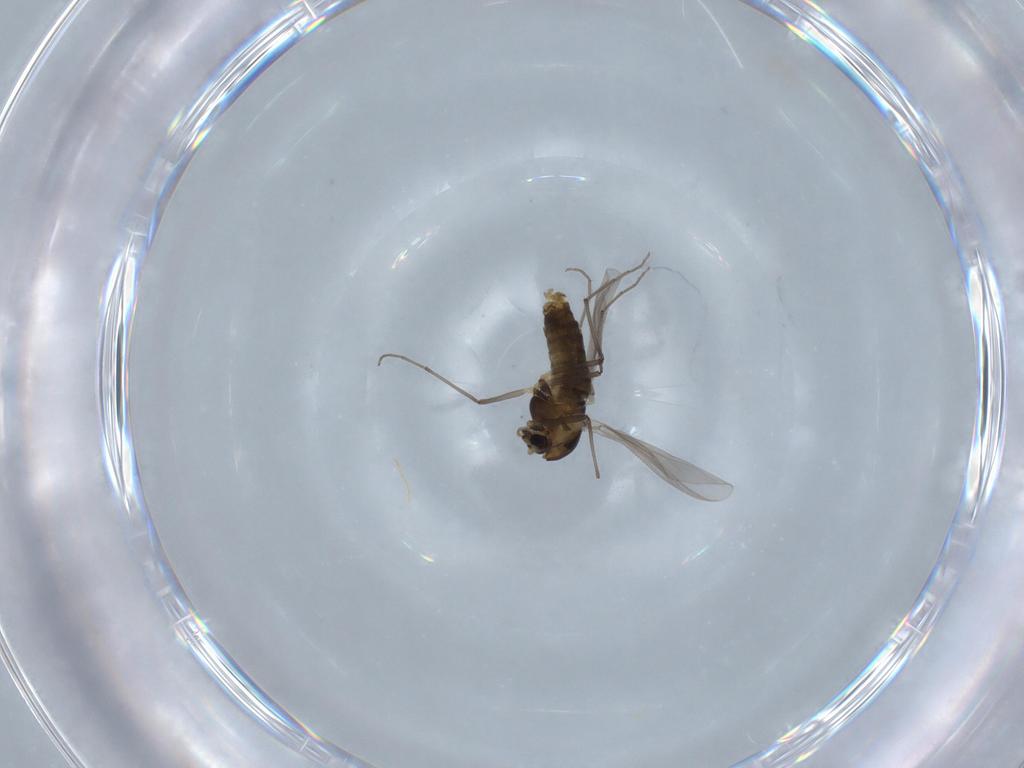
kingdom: Animalia
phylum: Arthropoda
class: Insecta
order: Diptera
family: Chironomidae
